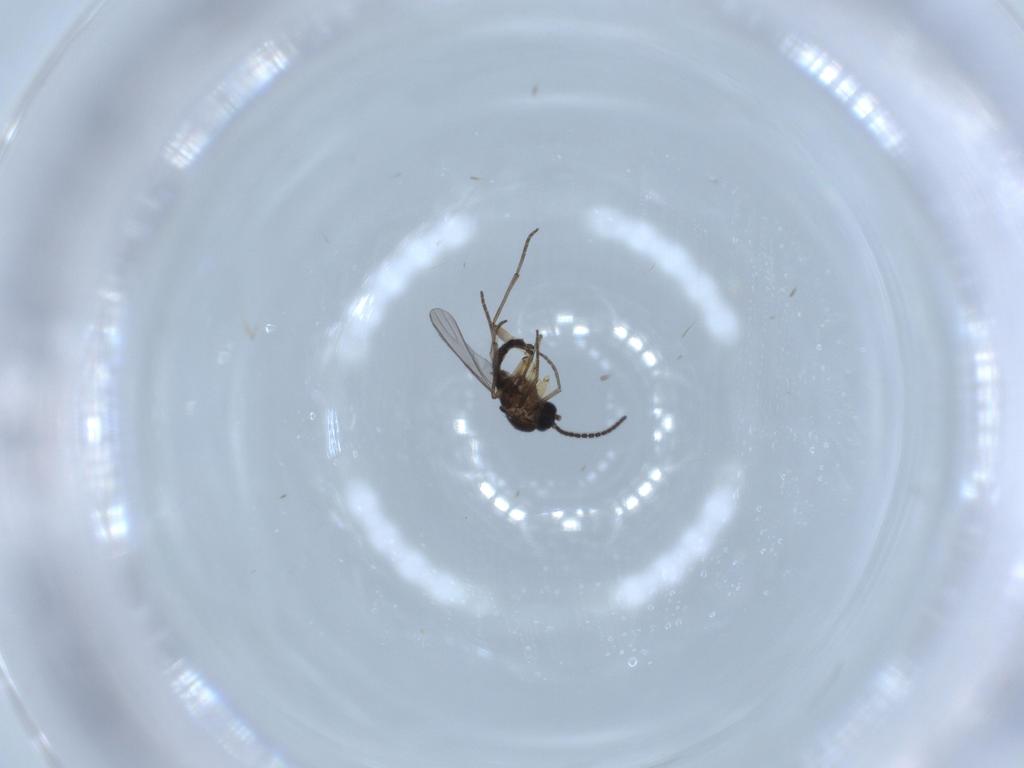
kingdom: Animalia
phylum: Arthropoda
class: Insecta
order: Diptera
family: Sciaridae
